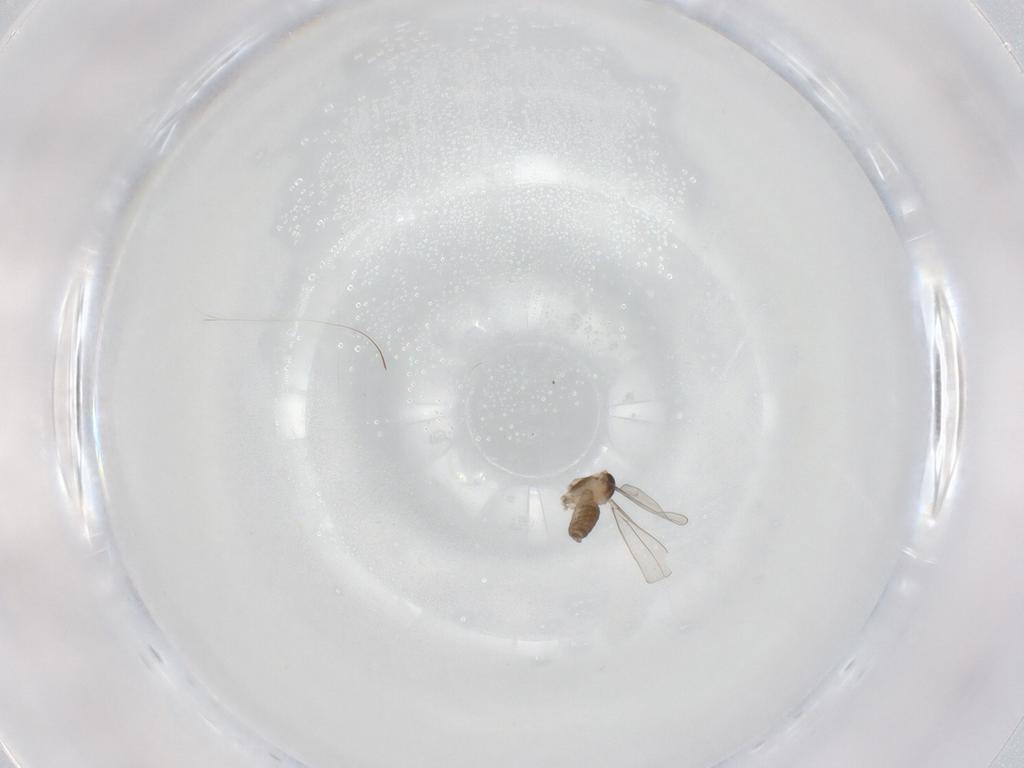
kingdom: Animalia
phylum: Arthropoda
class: Insecta
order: Diptera
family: Cecidomyiidae
